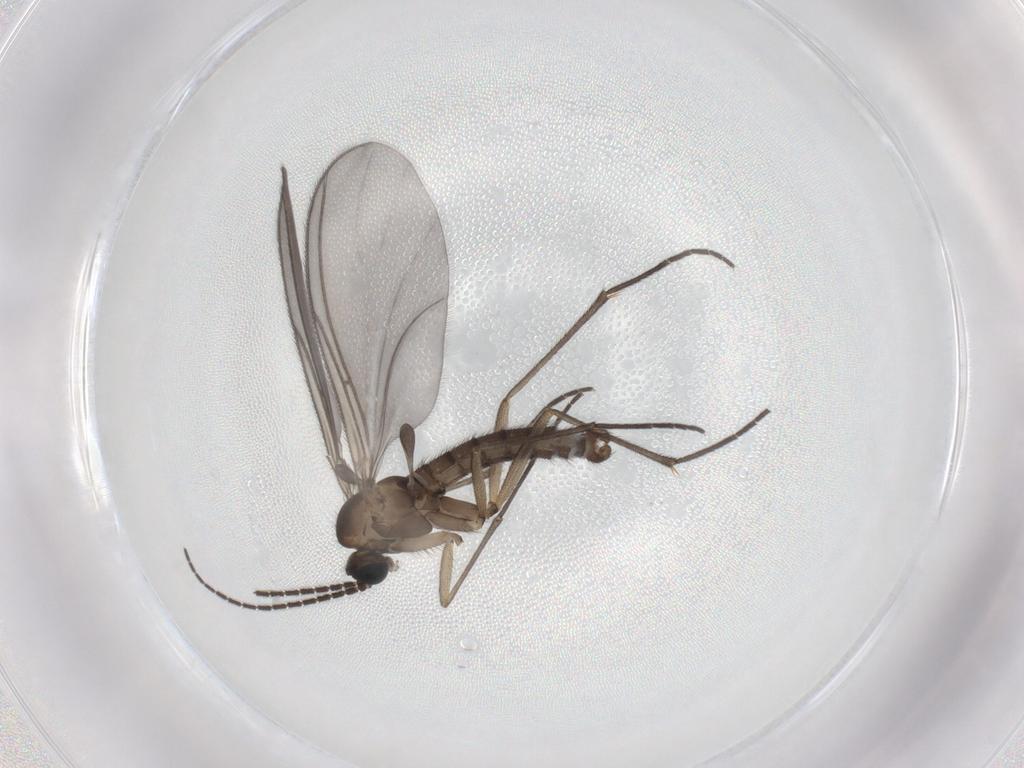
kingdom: Animalia
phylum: Arthropoda
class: Insecta
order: Diptera
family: Sciaridae
